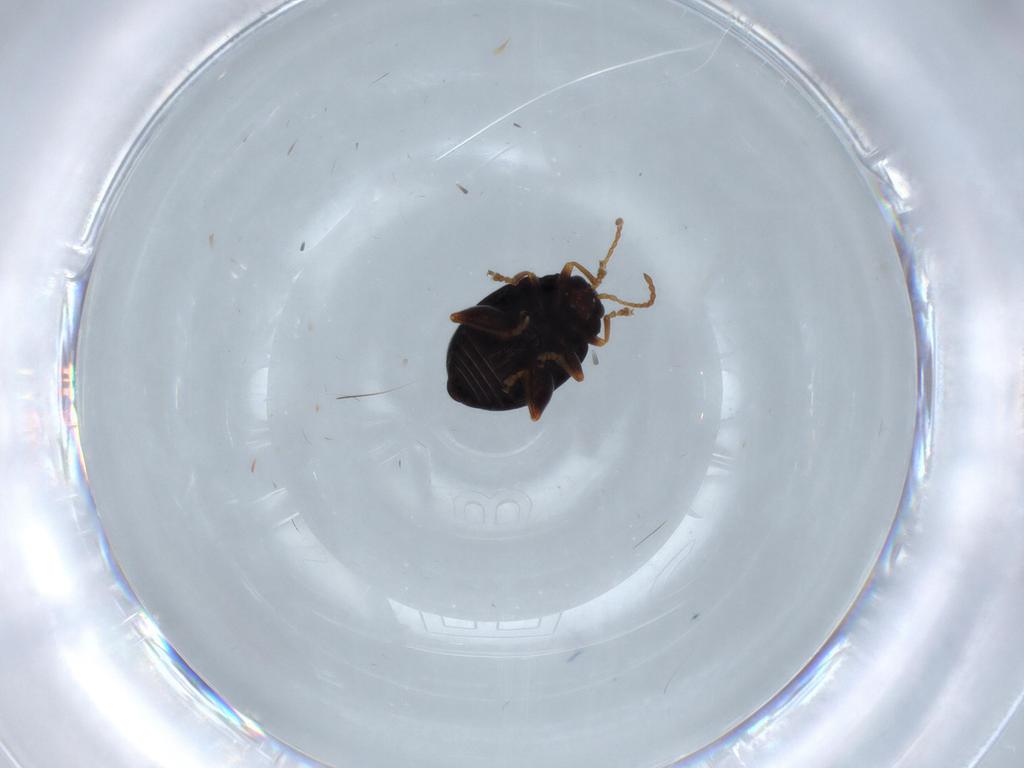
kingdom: Animalia
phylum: Arthropoda
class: Insecta
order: Coleoptera
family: Chrysomelidae
